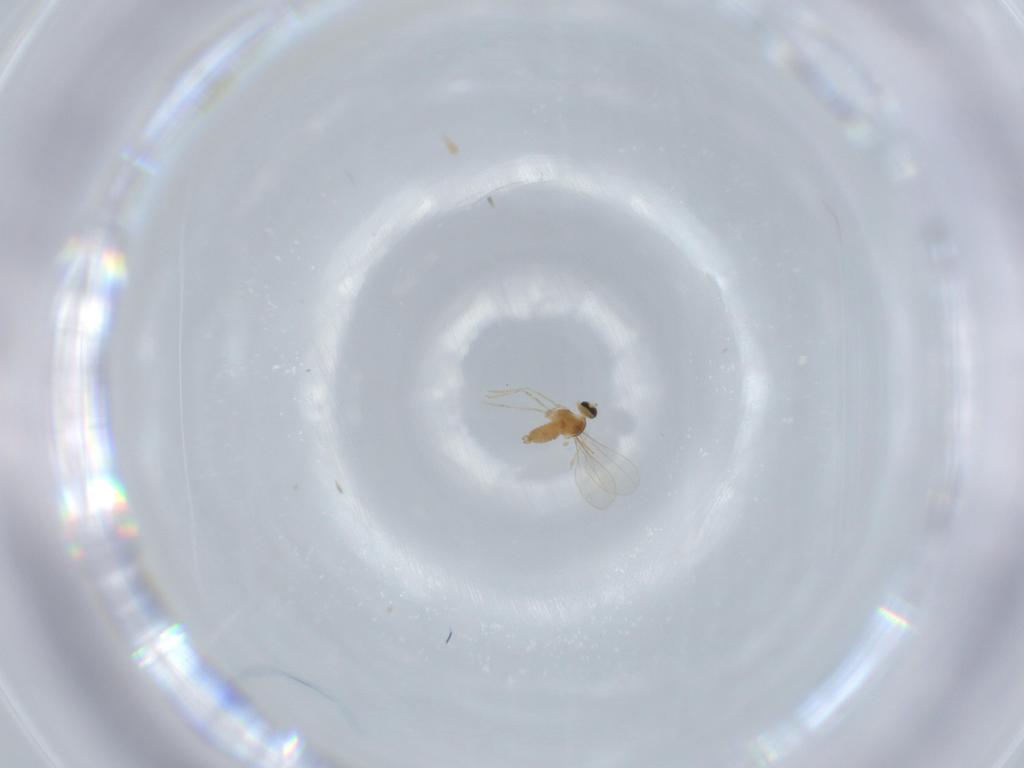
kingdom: Animalia
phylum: Arthropoda
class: Insecta
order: Diptera
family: Cecidomyiidae
